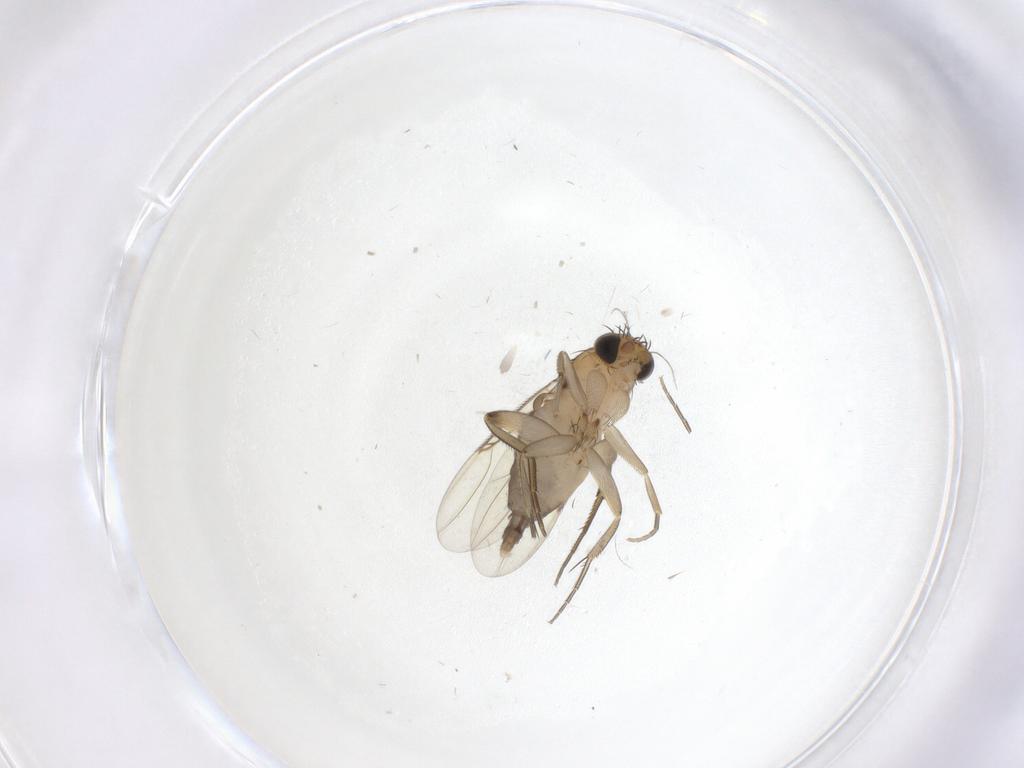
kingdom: Animalia
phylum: Arthropoda
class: Insecta
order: Diptera
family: Phoridae
